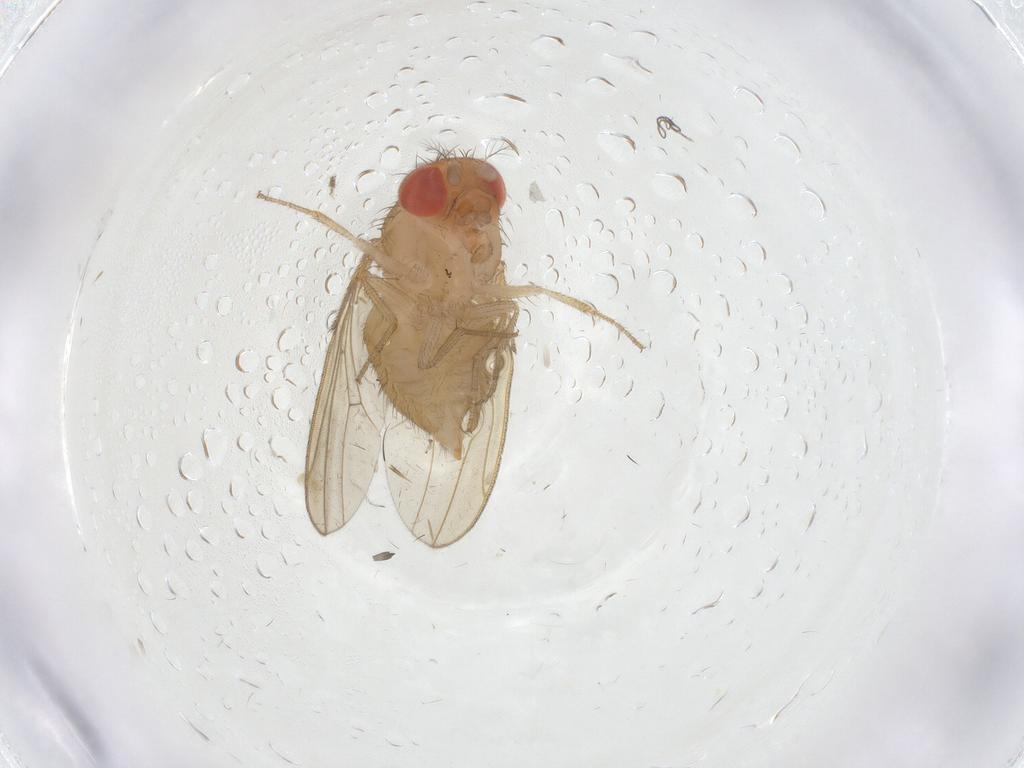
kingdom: Animalia
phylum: Arthropoda
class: Insecta
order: Diptera
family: Drosophilidae
